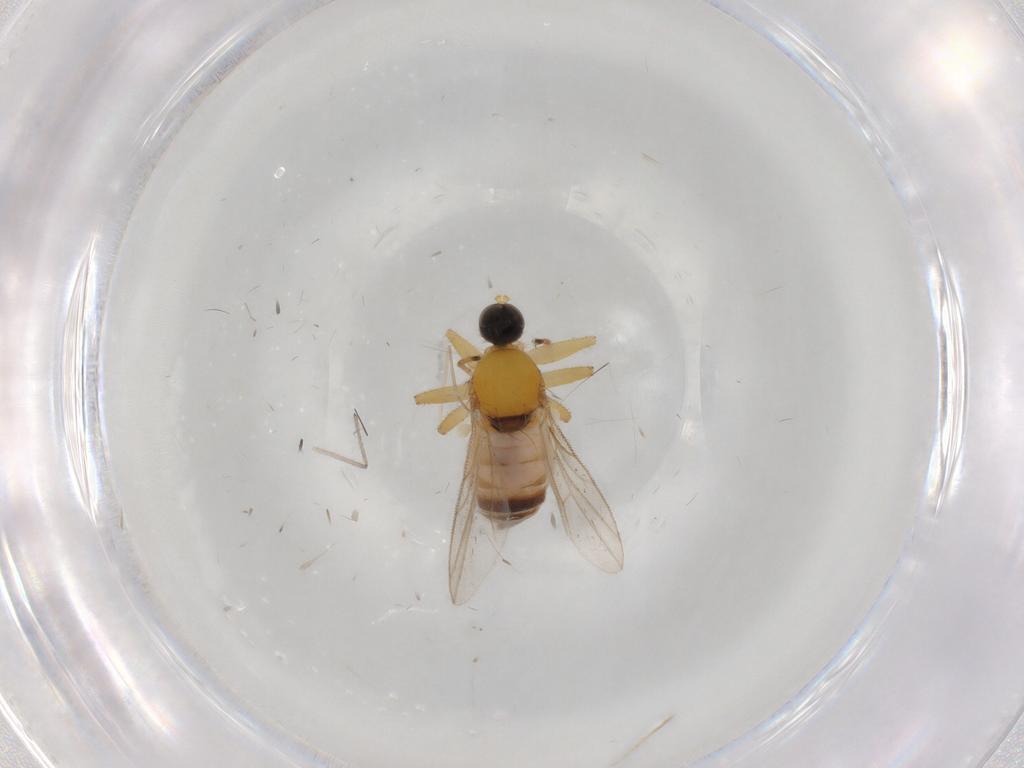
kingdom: Animalia
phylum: Arthropoda
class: Insecta
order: Diptera
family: Hybotidae
